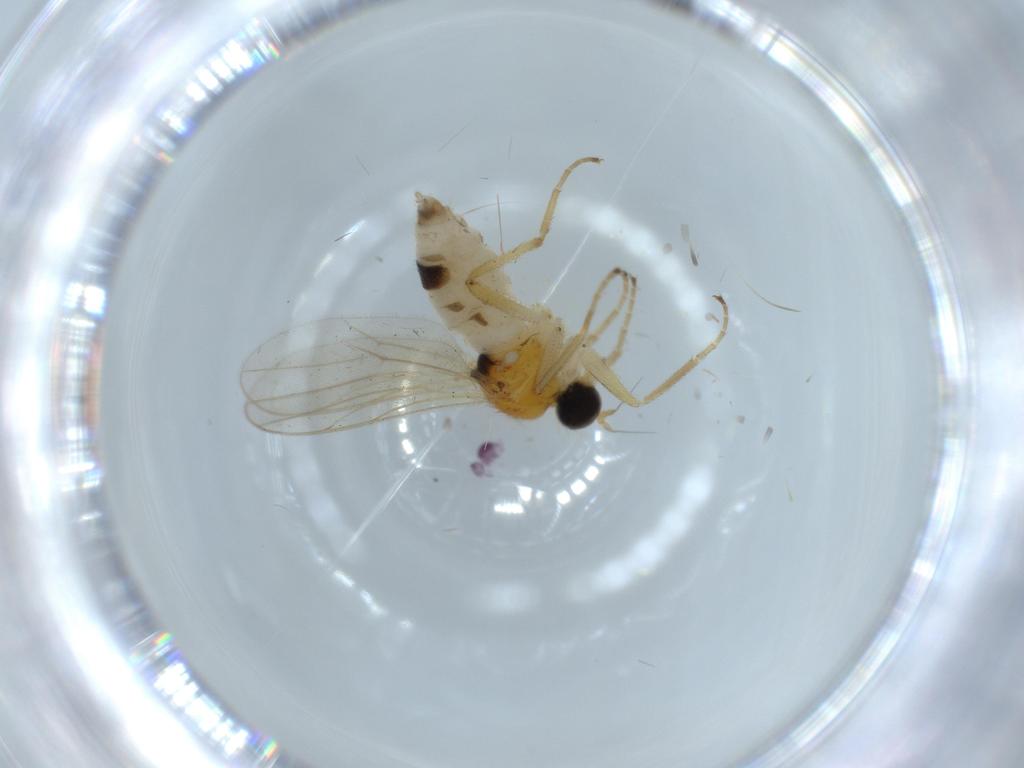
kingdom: Animalia
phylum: Arthropoda
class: Insecta
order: Diptera
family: Hybotidae
